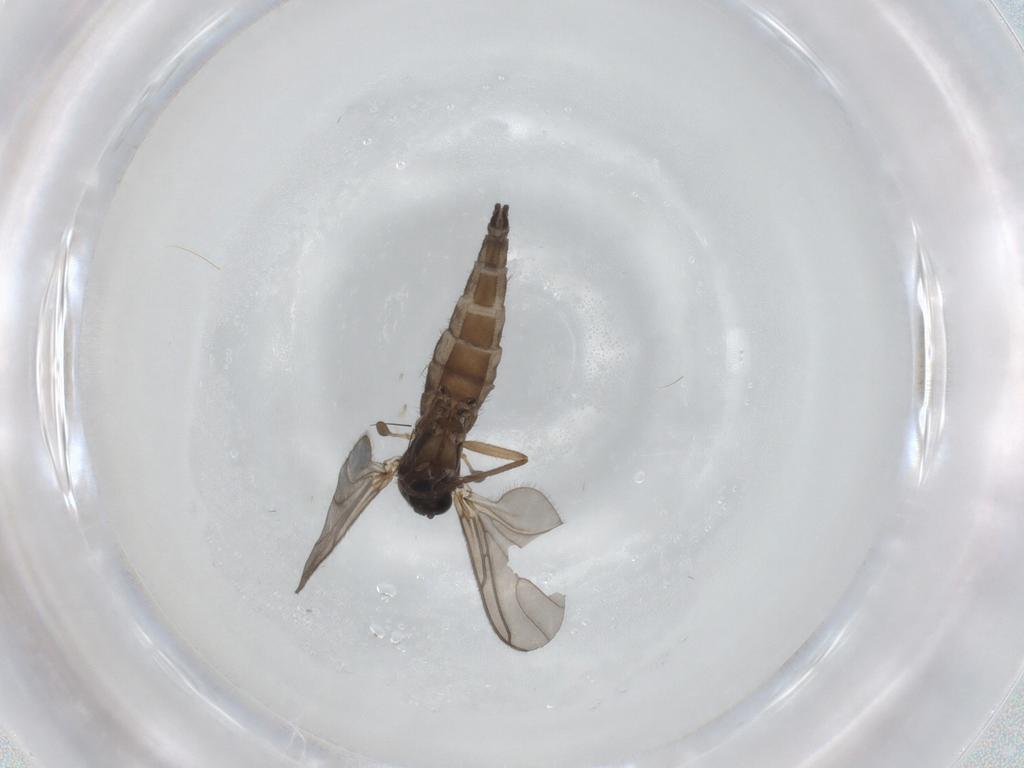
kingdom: Animalia
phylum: Arthropoda
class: Insecta
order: Diptera
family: Sciaridae
